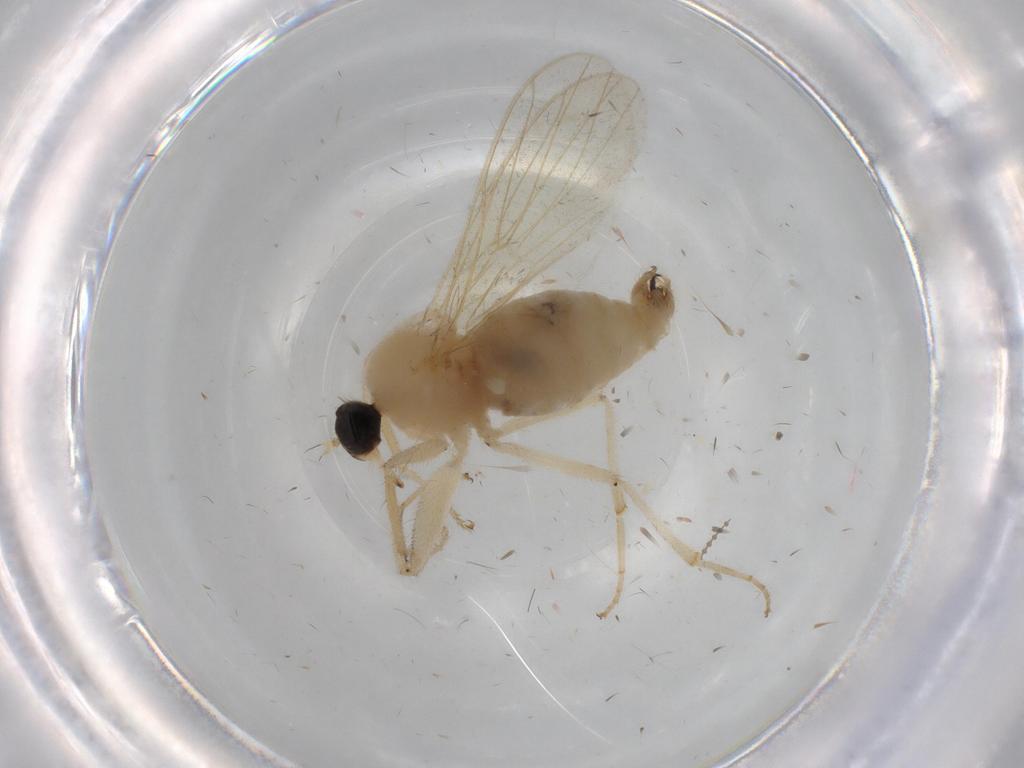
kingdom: Animalia
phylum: Arthropoda
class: Insecta
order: Diptera
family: Hybotidae
